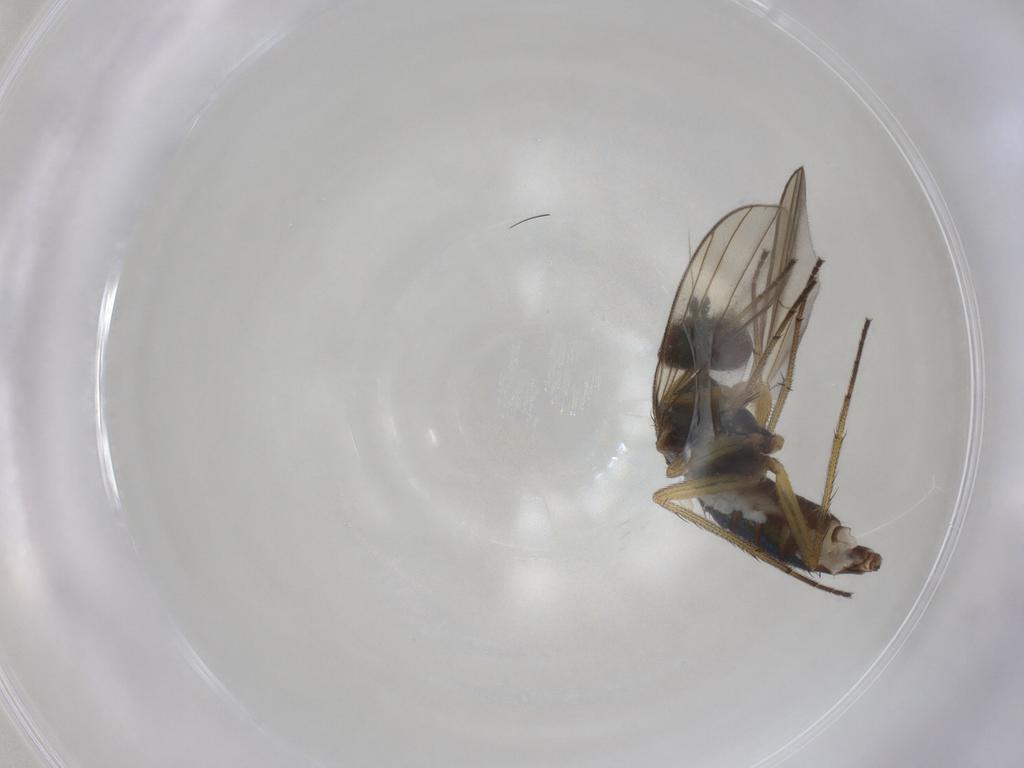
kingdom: Animalia
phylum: Arthropoda
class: Insecta
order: Diptera
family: Dolichopodidae
